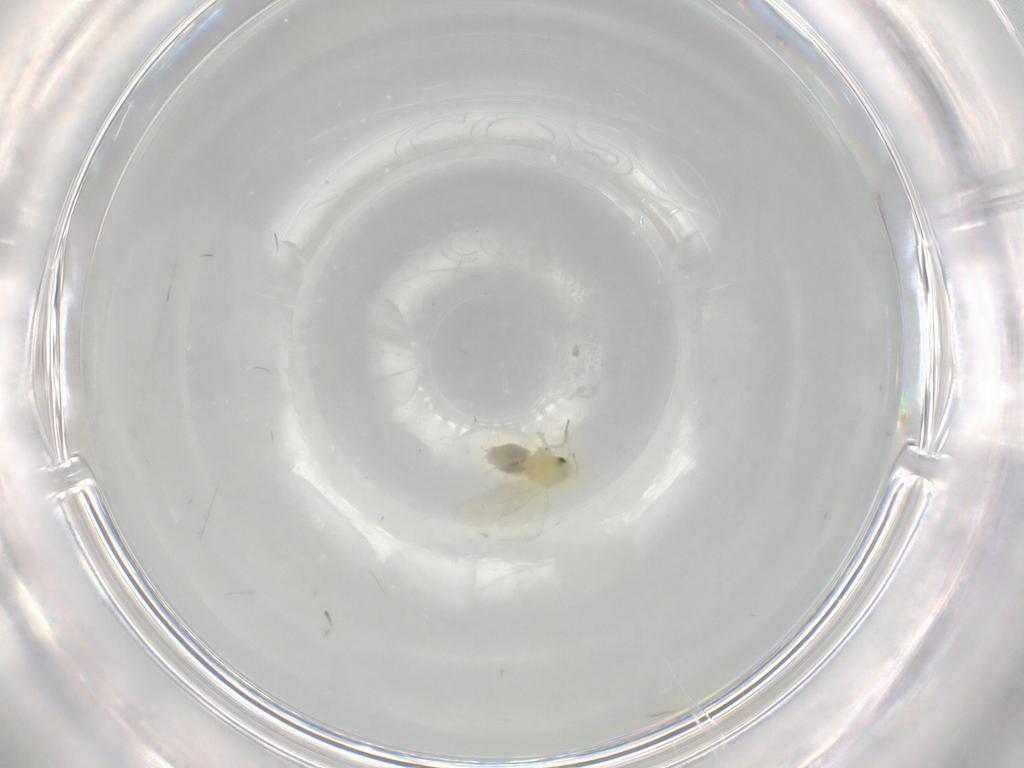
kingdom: Animalia
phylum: Arthropoda
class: Insecta
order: Hemiptera
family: Aleyrodidae
